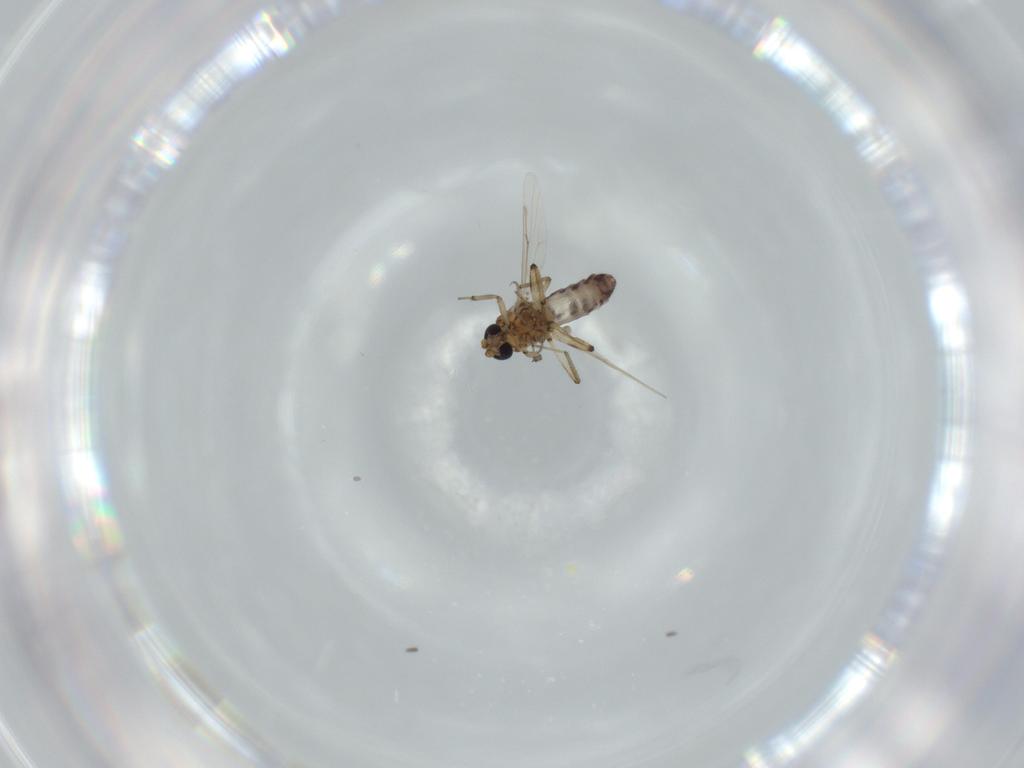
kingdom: Animalia
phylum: Arthropoda
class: Insecta
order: Diptera
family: Ceratopogonidae
